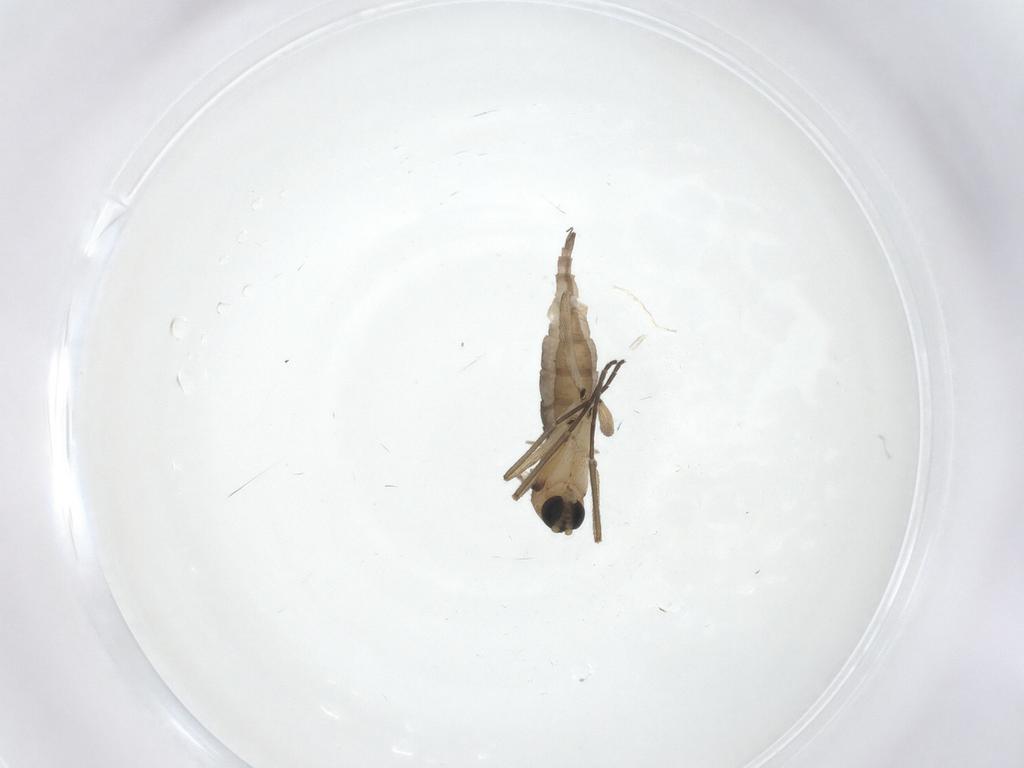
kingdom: Animalia
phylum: Arthropoda
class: Insecta
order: Diptera
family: Sciaridae
